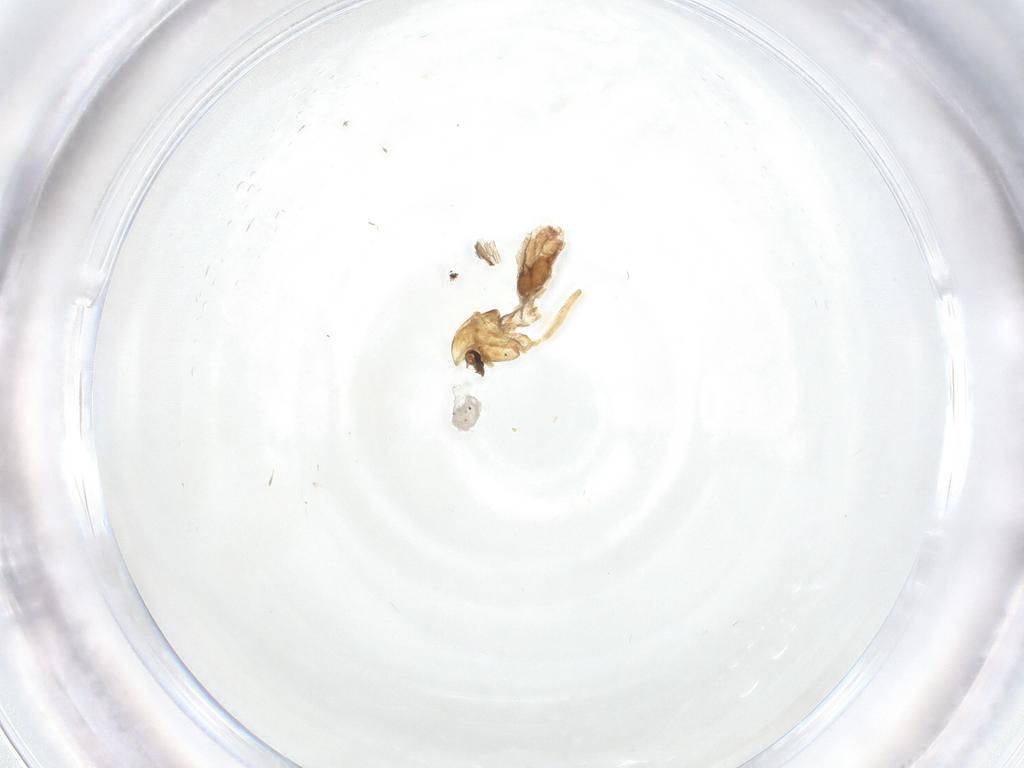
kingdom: Animalia
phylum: Arthropoda
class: Insecta
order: Diptera
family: Chironomidae
